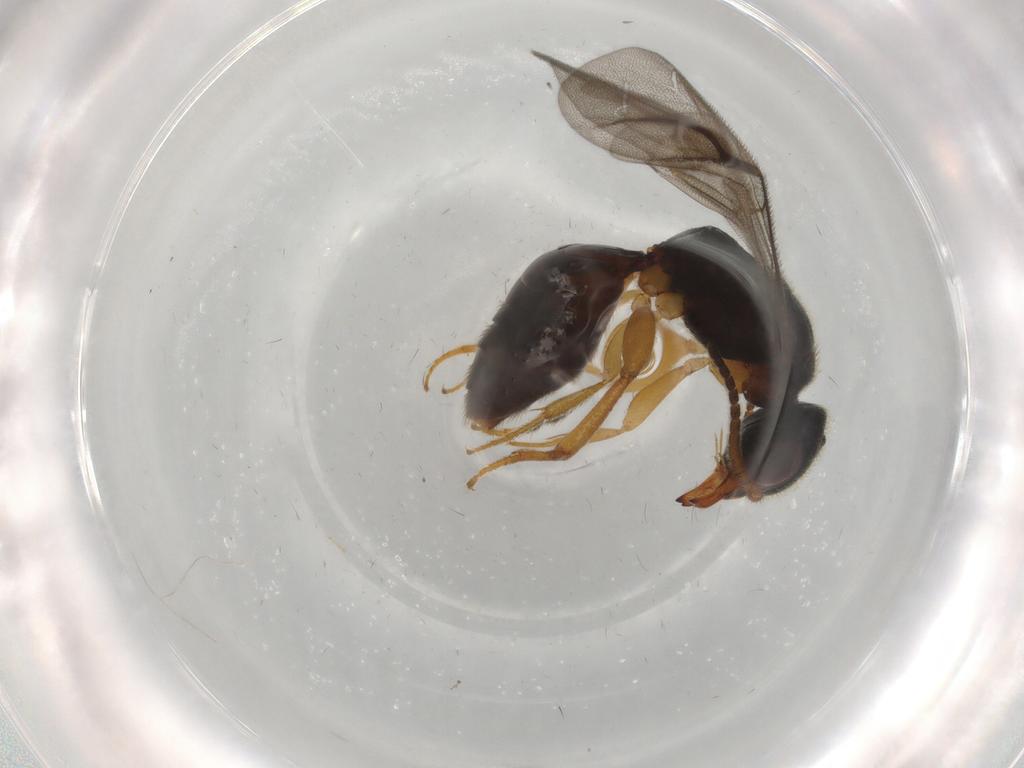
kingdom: Animalia
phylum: Arthropoda
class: Insecta
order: Hymenoptera
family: Bethylidae
